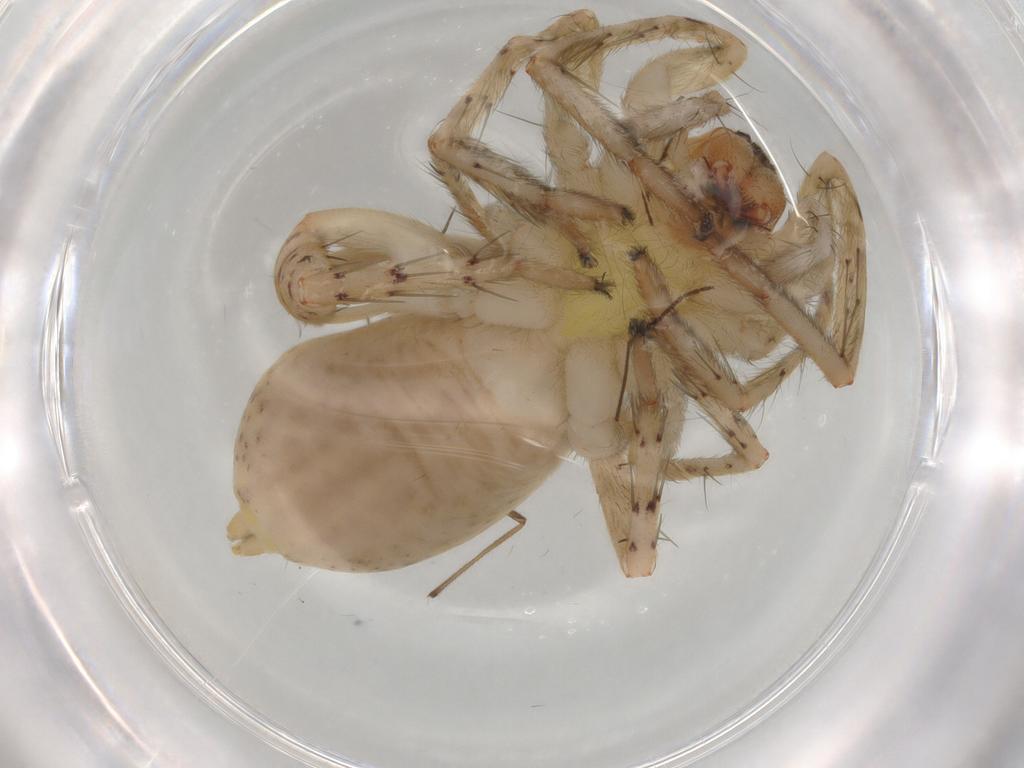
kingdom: Animalia
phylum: Arthropoda
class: Arachnida
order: Araneae
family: Anyphaenidae
